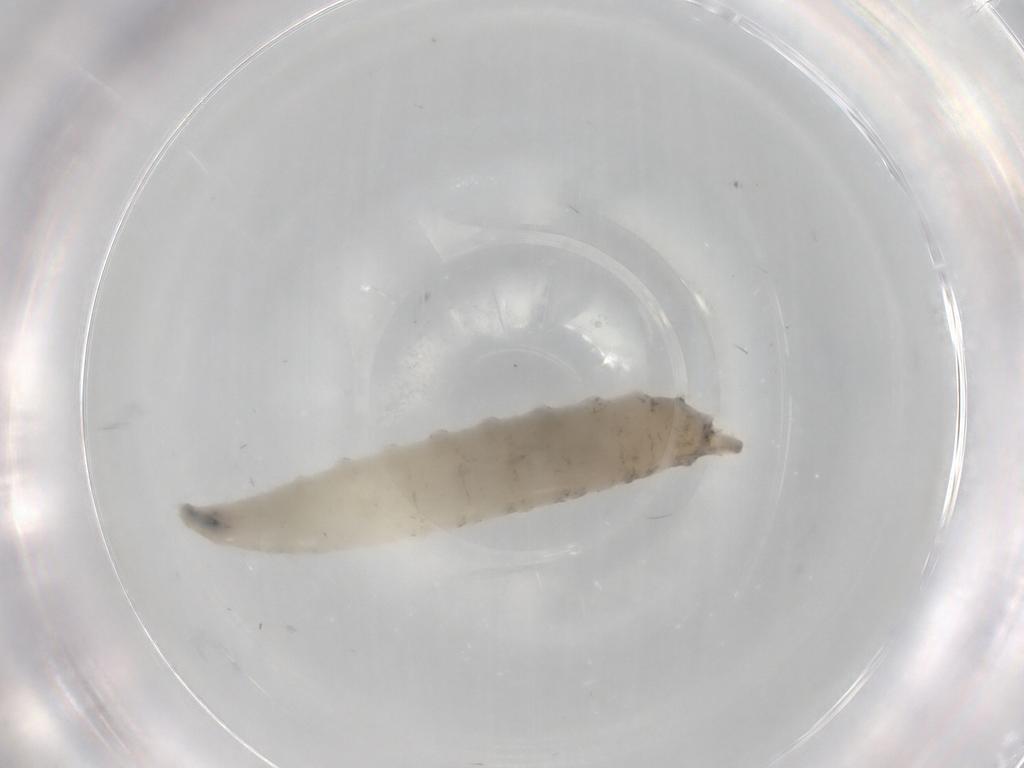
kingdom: Animalia
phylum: Arthropoda
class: Insecta
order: Diptera
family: Drosophilidae
